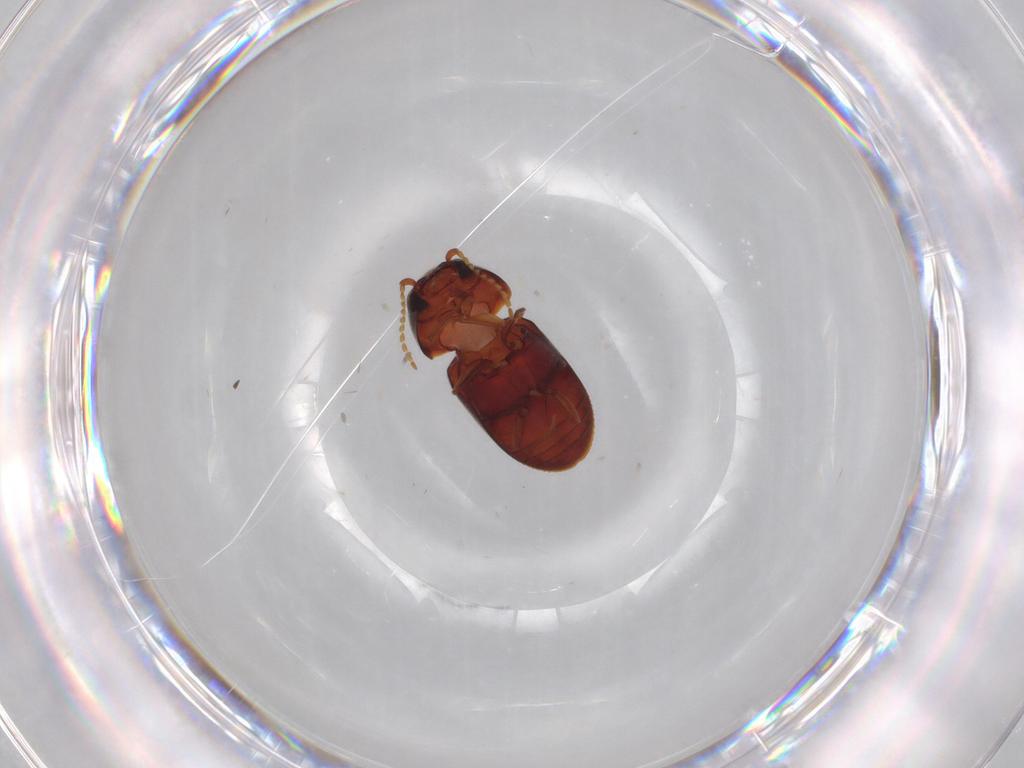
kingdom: Animalia
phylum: Arthropoda
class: Insecta
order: Coleoptera
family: Ptinidae
